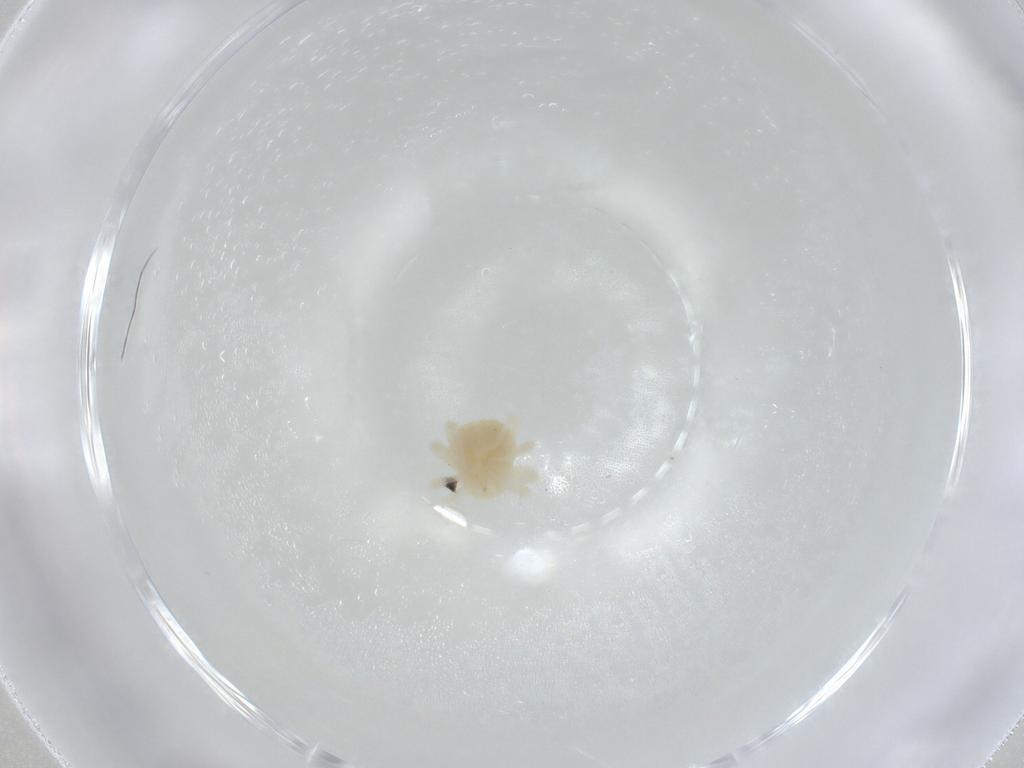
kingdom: Animalia
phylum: Arthropoda
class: Arachnida
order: Trombidiformes
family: Anystidae
